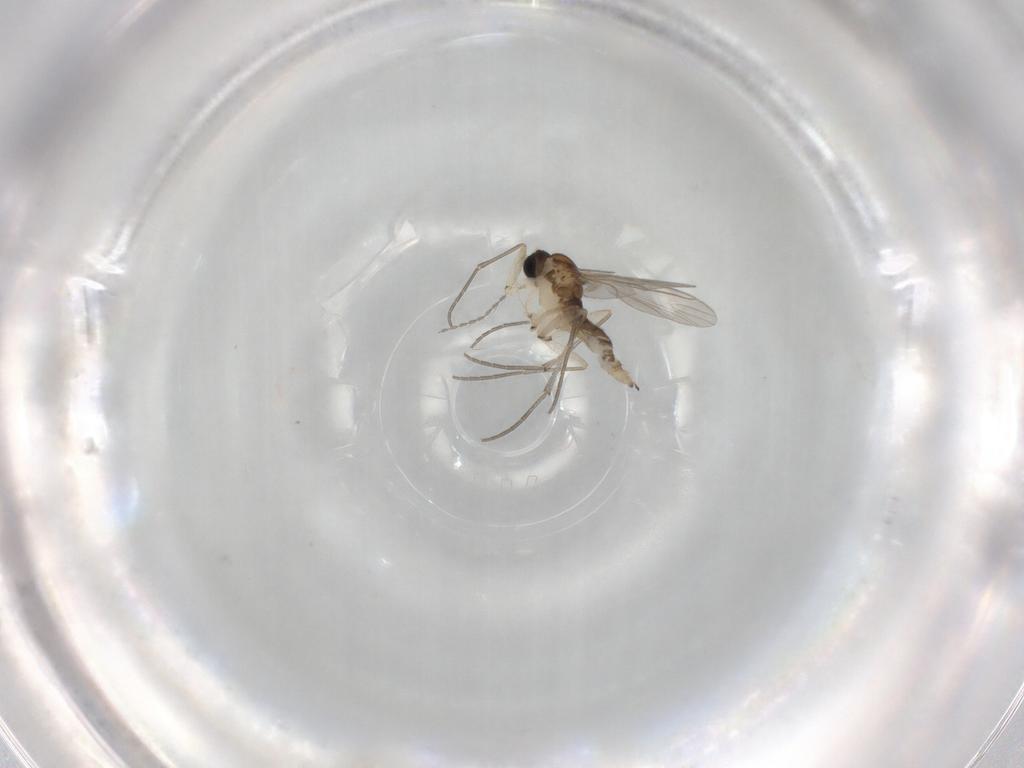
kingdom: Animalia
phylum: Arthropoda
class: Insecta
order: Diptera
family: Cecidomyiidae
